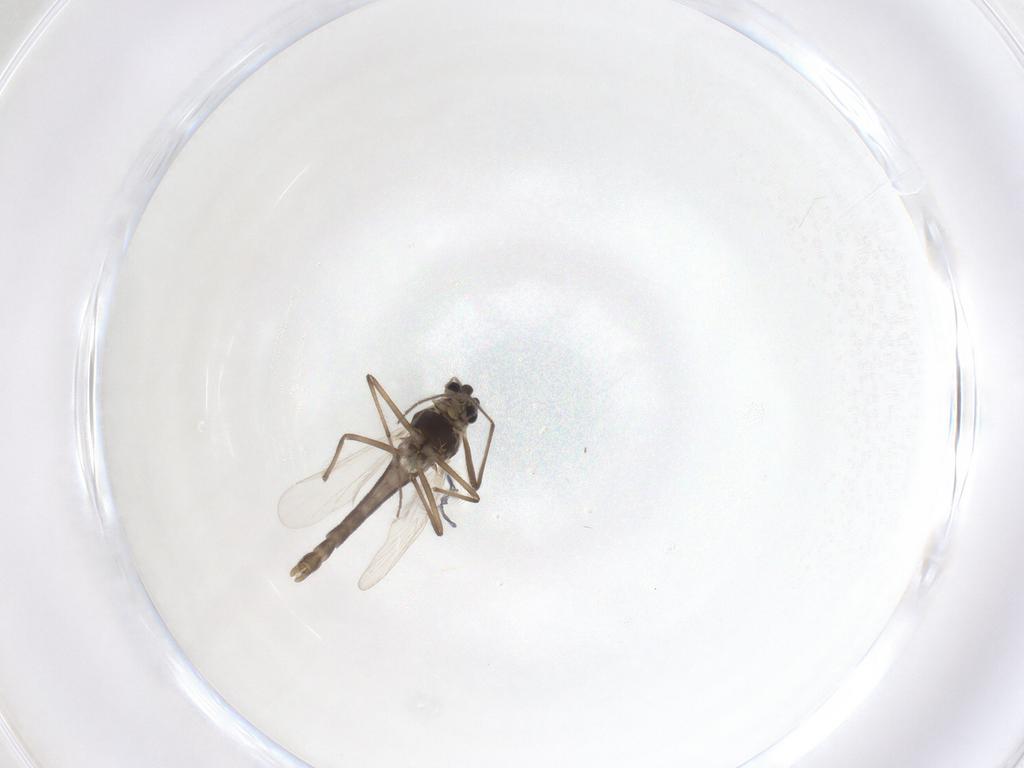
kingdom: Animalia
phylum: Arthropoda
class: Insecta
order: Diptera
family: Chironomidae
